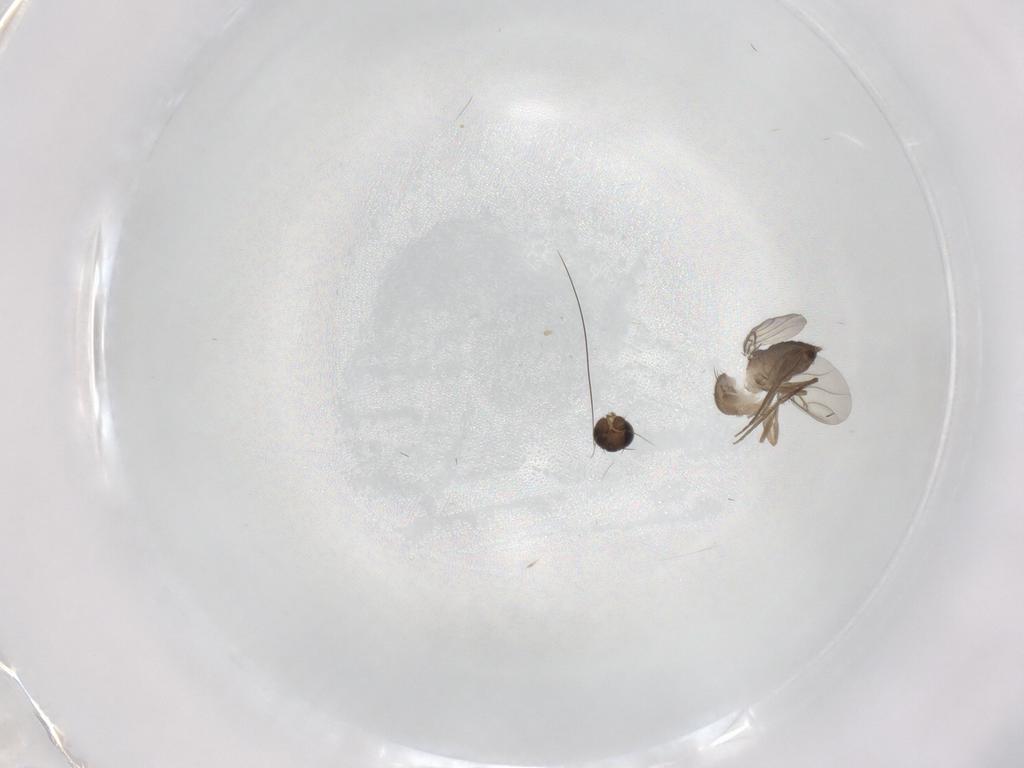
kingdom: Animalia
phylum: Arthropoda
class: Insecta
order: Diptera
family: Phoridae
